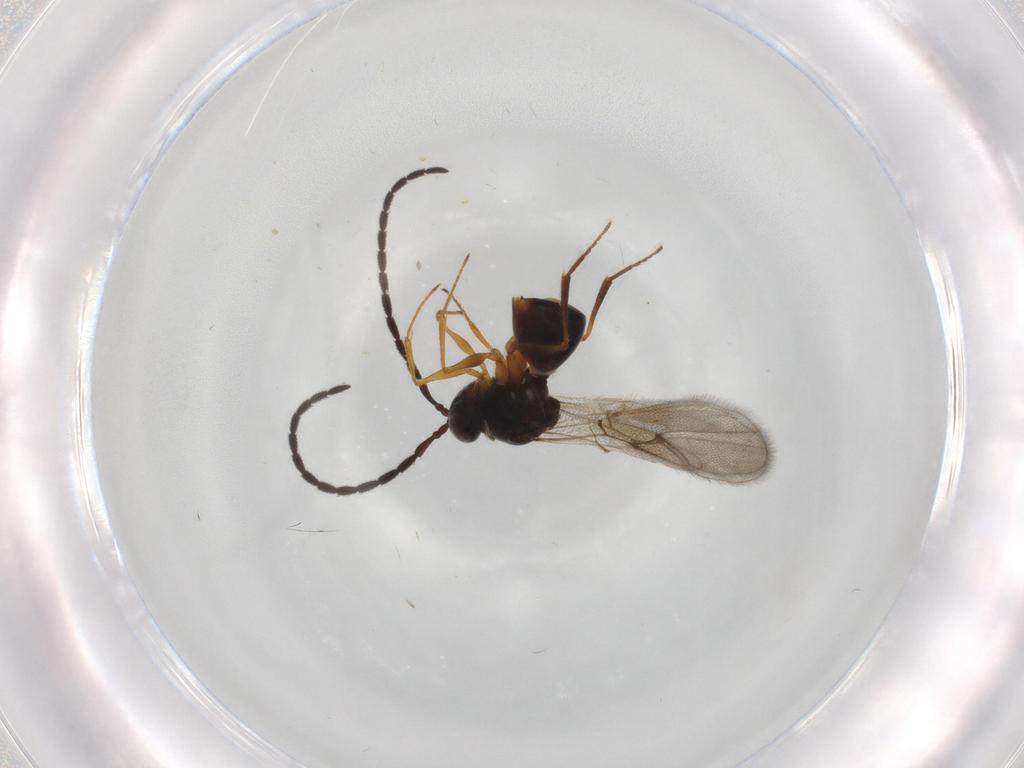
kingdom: Animalia
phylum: Arthropoda
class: Insecta
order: Hymenoptera
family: Figitidae
